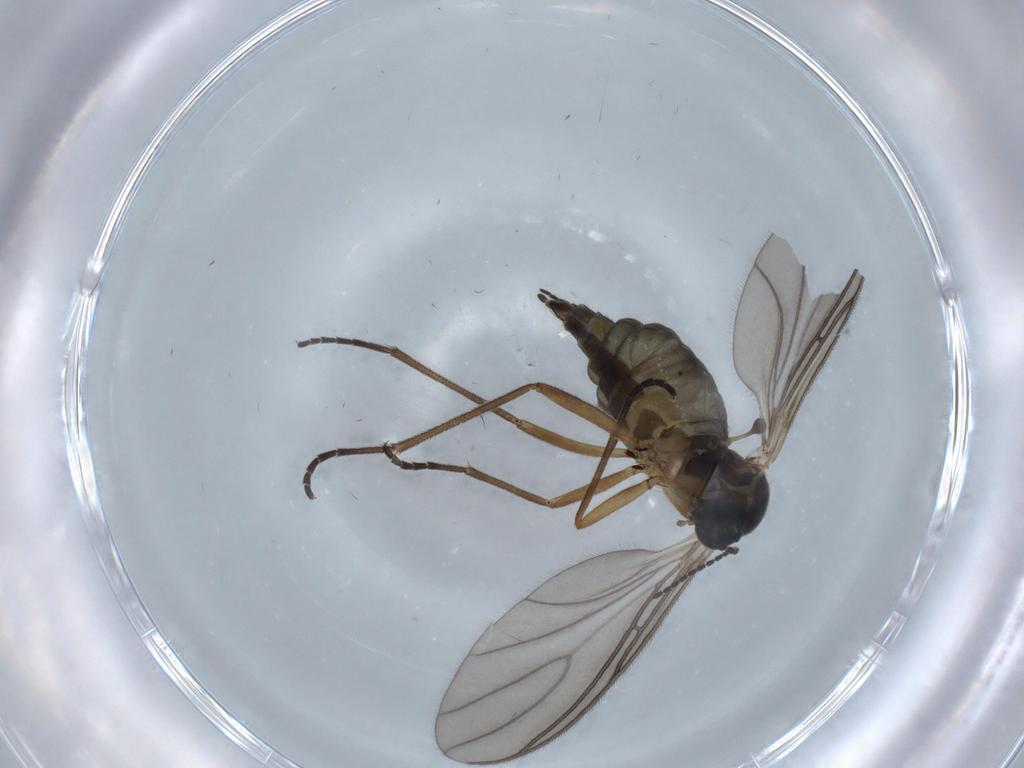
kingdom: Animalia
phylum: Arthropoda
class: Insecta
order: Diptera
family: Sciaridae
